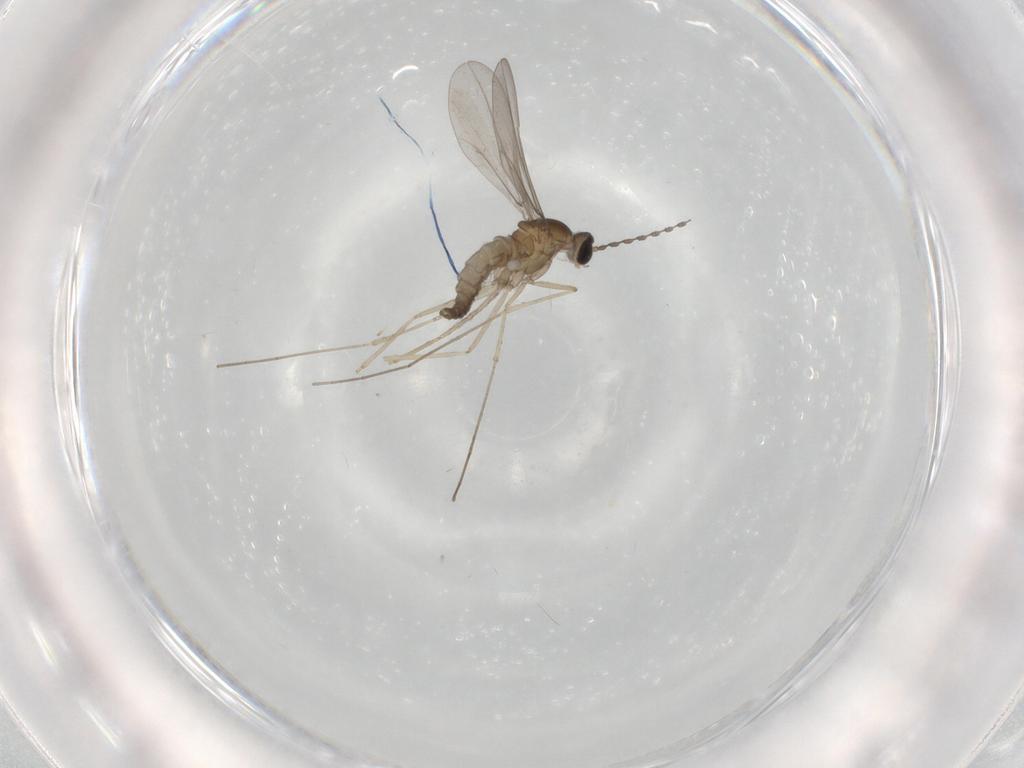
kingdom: Animalia
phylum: Arthropoda
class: Insecta
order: Diptera
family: Cecidomyiidae
